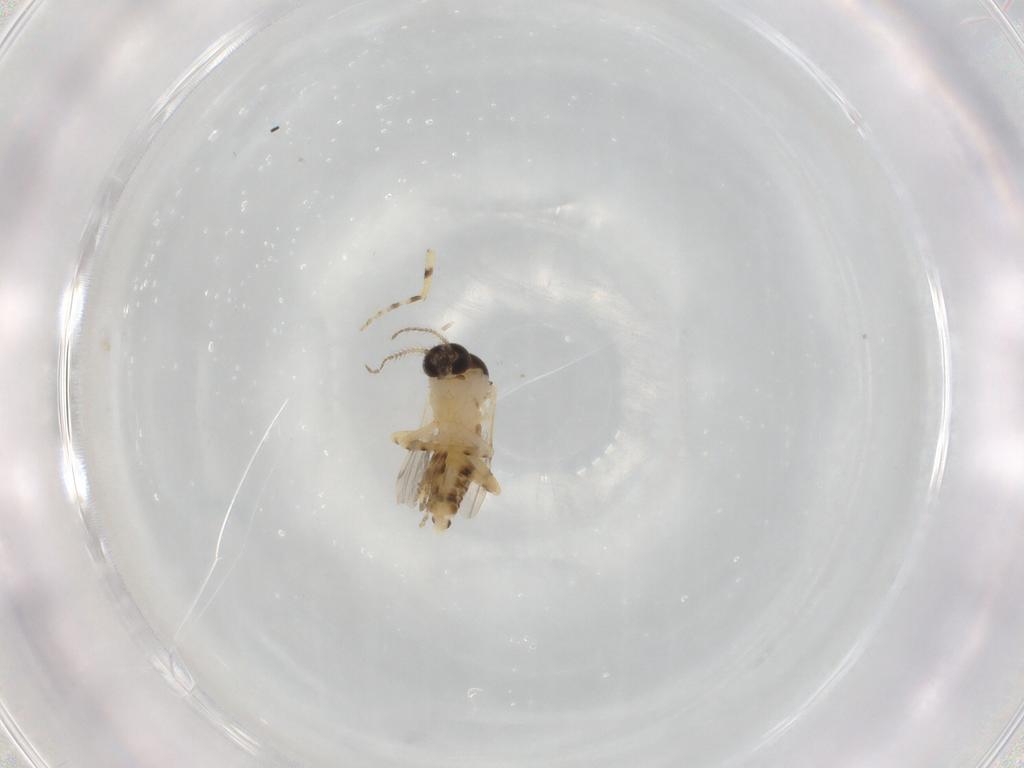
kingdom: Animalia
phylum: Arthropoda
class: Insecta
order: Diptera
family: Ceratopogonidae
